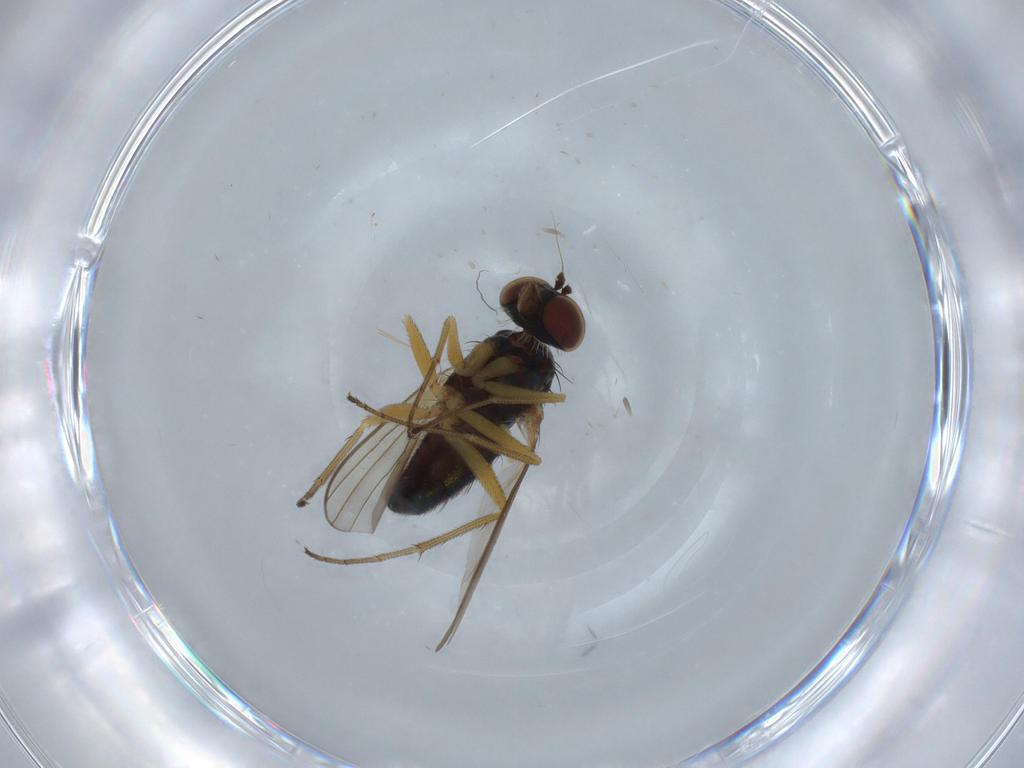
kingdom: Animalia
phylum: Arthropoda
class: Insecta
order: Diptera
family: Dolichopodidae
